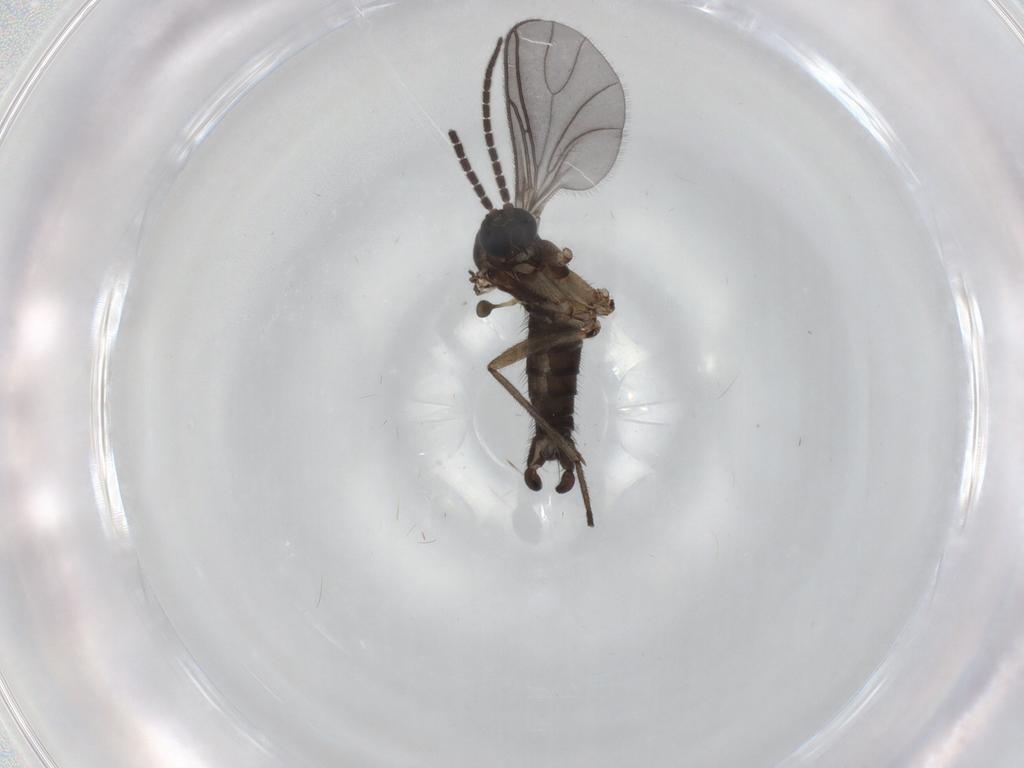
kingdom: Animalia
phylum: Arthropoda
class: Insecta
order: Diptera
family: Sciaridae
